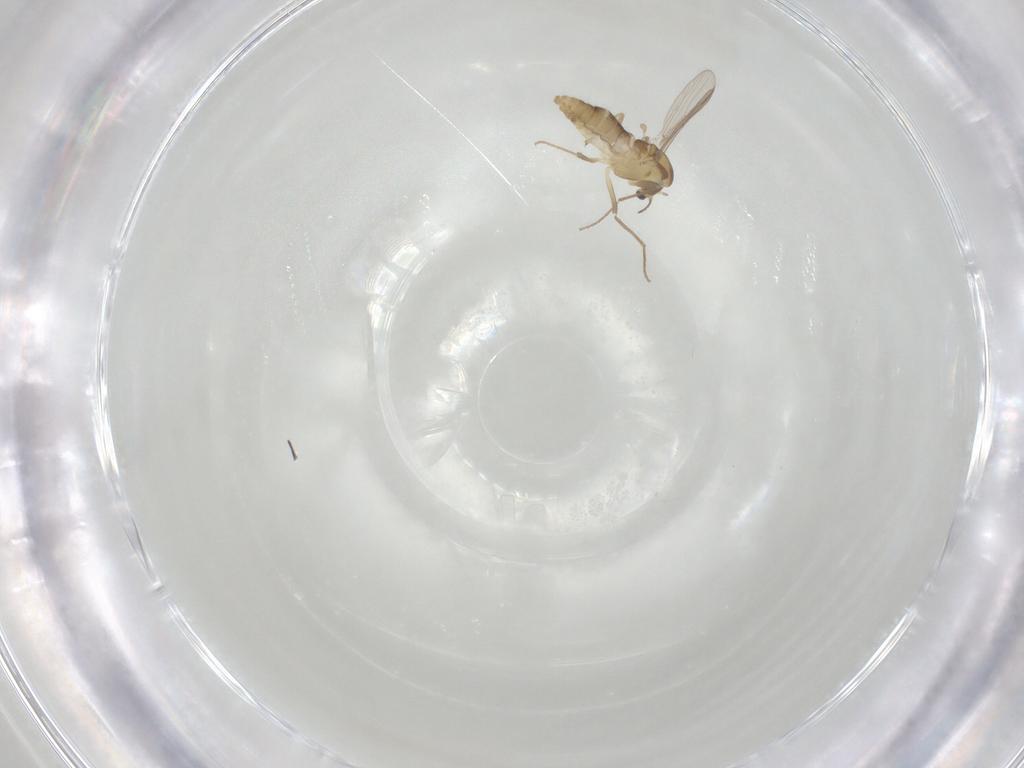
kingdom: Animalia
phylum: Arthropoda
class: Insecta
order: Diptera
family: Chironomidae
